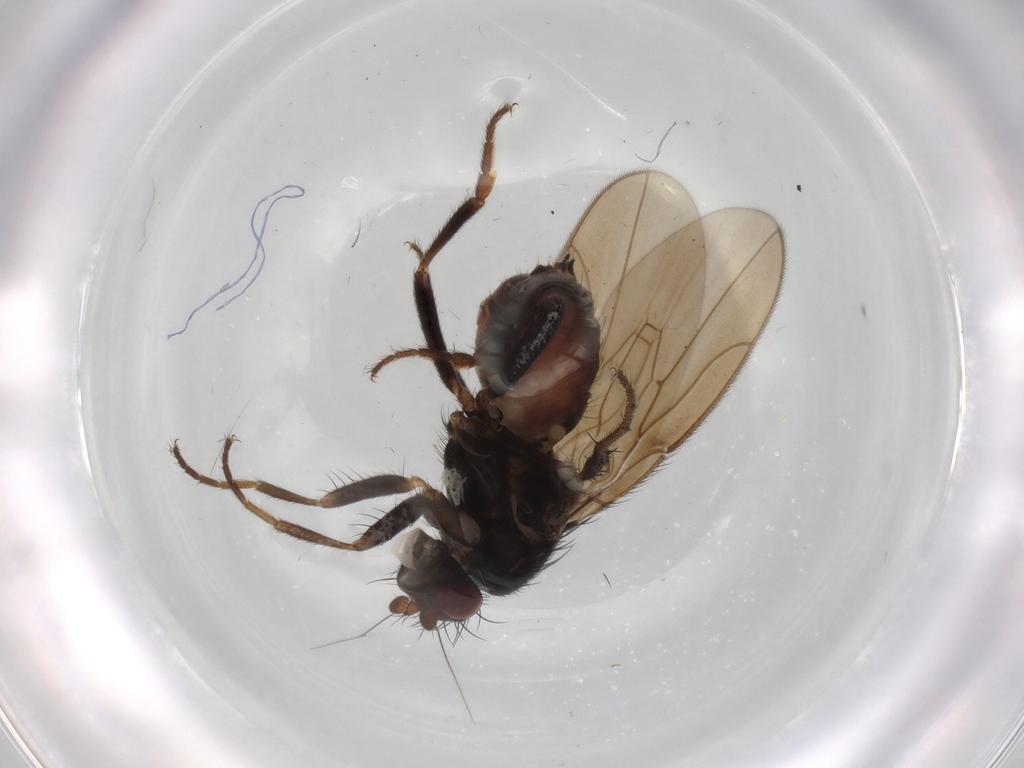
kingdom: Animalia
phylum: Arthropoda
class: Insecta
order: Diptera
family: Sphaeroceridae
